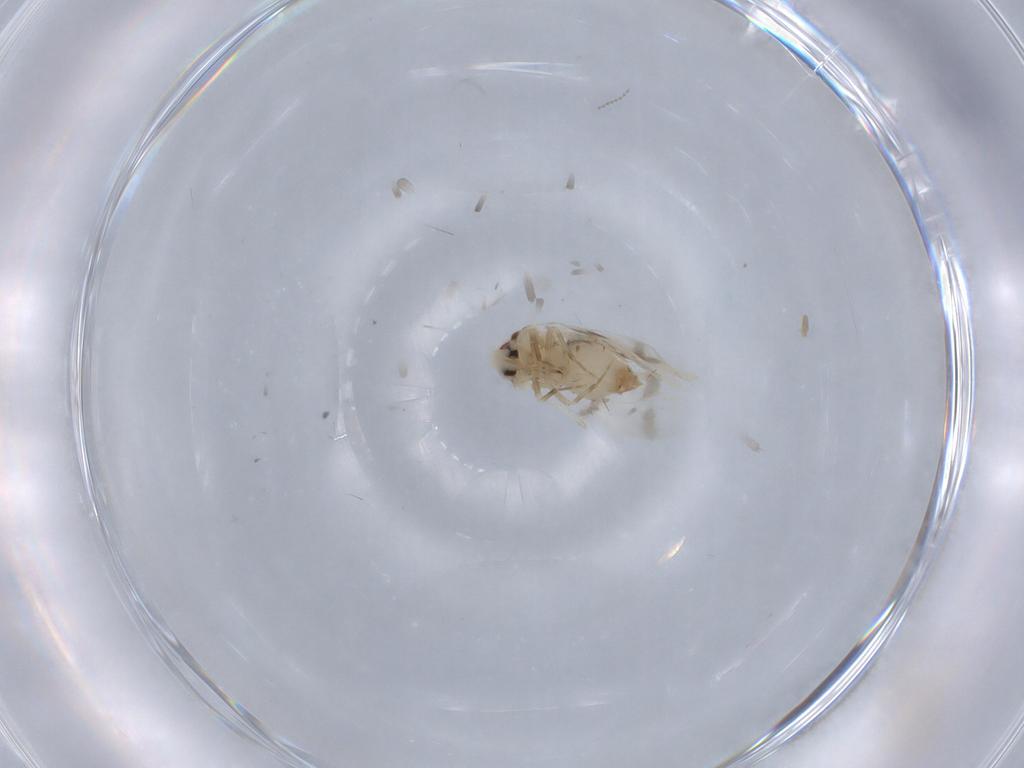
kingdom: Animalia
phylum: Arthropoda
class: Insecta
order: Hemiptera
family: Aleyrodidae
